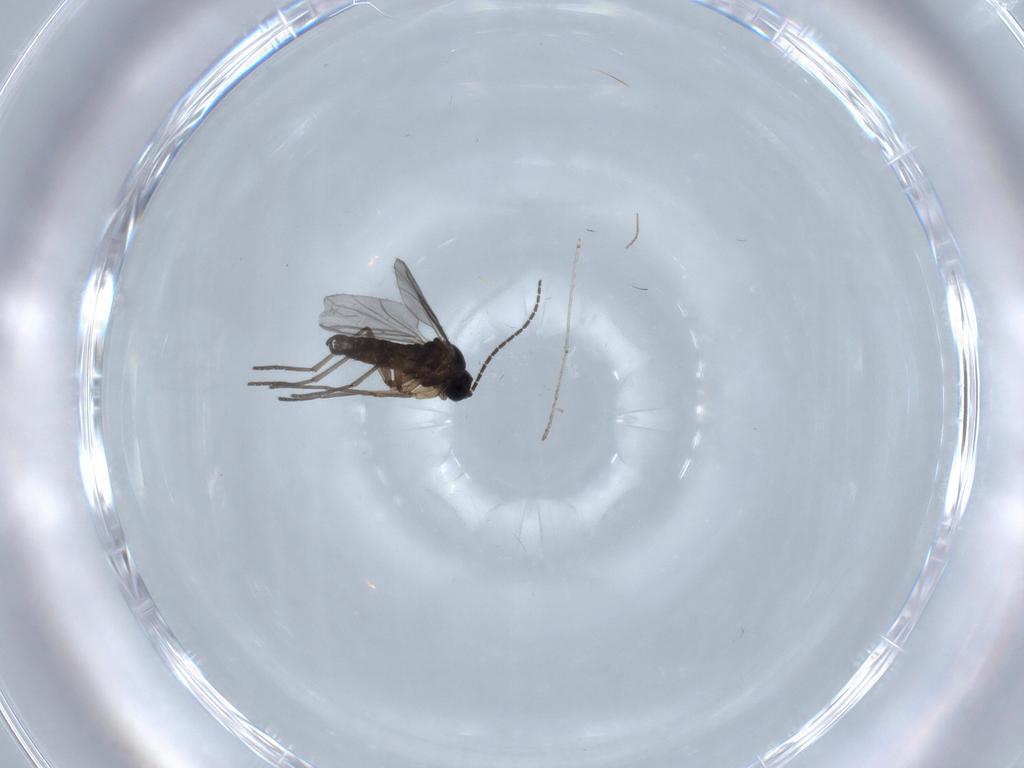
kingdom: Animalia
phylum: Arthropoda
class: Insecta
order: Diptera
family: Sciaridae
